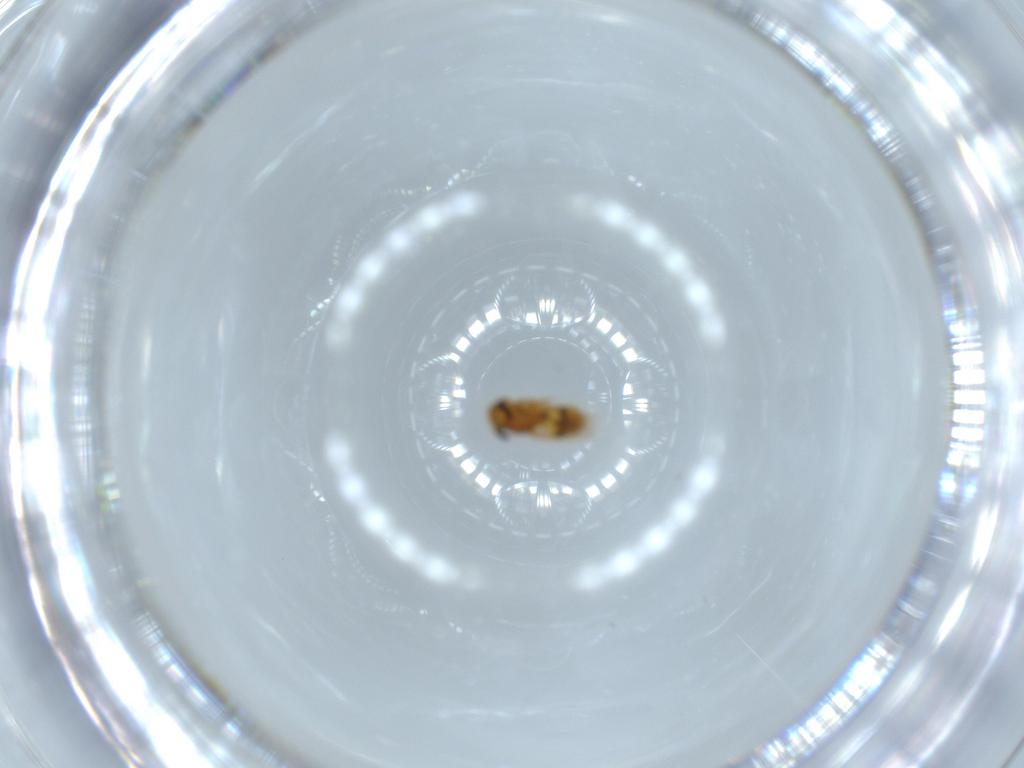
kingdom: Animalia
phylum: Arthropoda
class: Insecta
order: Hymenoptera
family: Scelionidae
